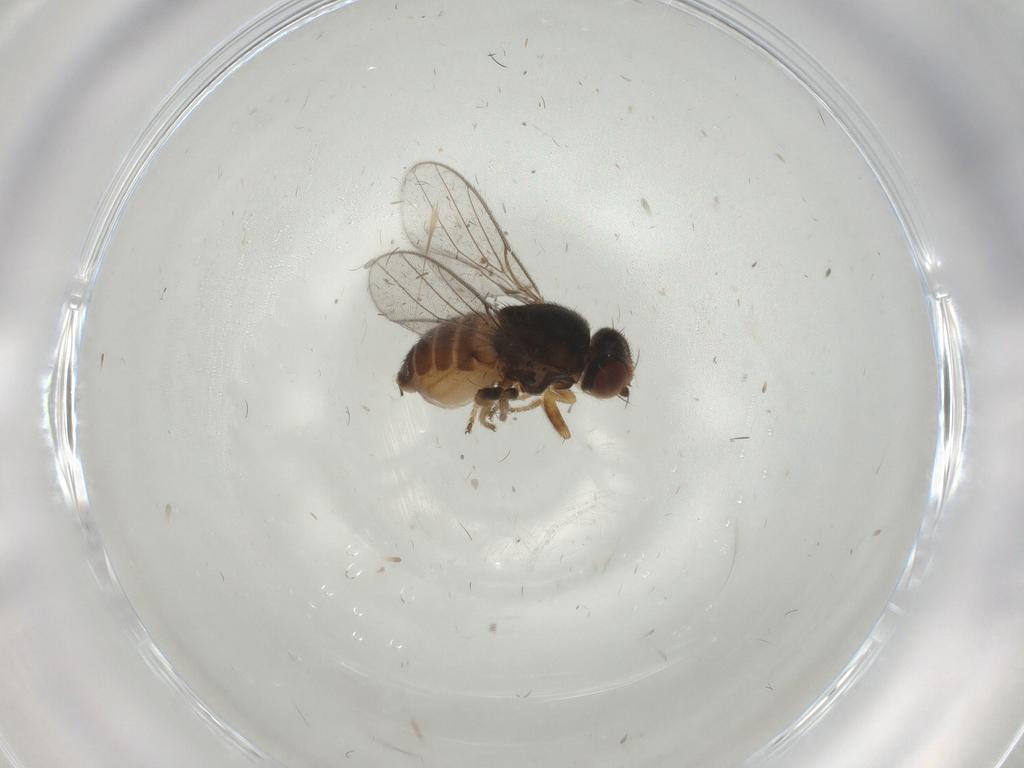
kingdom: Animalia
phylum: Arthropoda
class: Insecta
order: Diptera
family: Chloropidae
